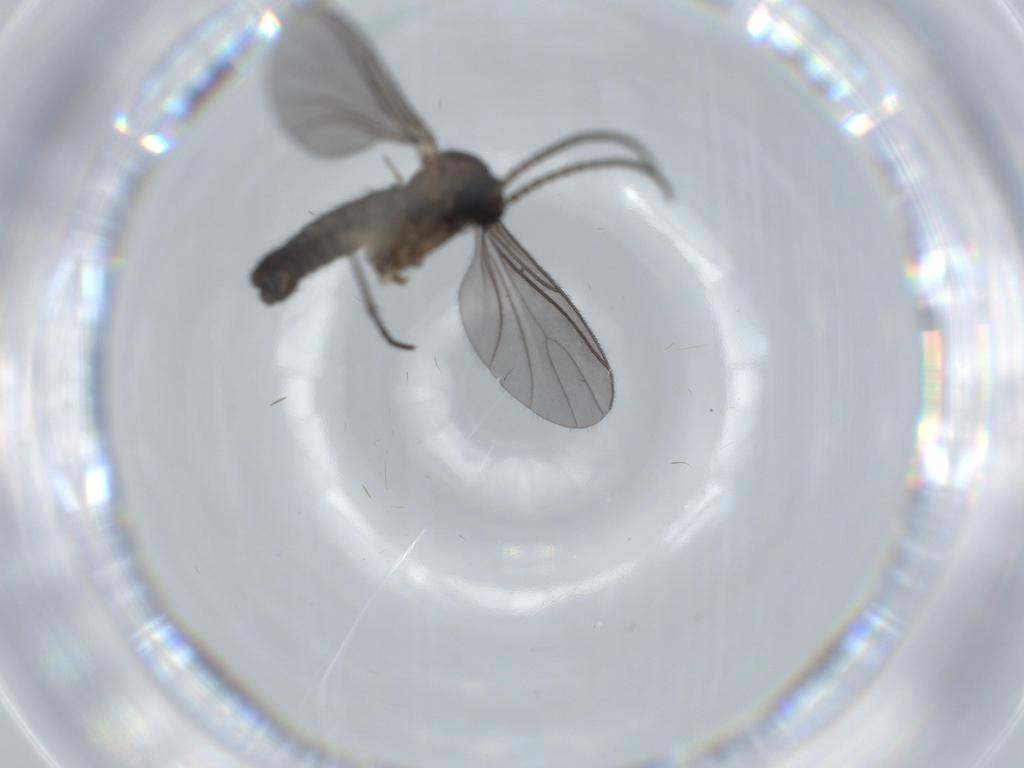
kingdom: Animalia
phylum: Arthropoda
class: Insecta
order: Diptera
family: Sciaridae
